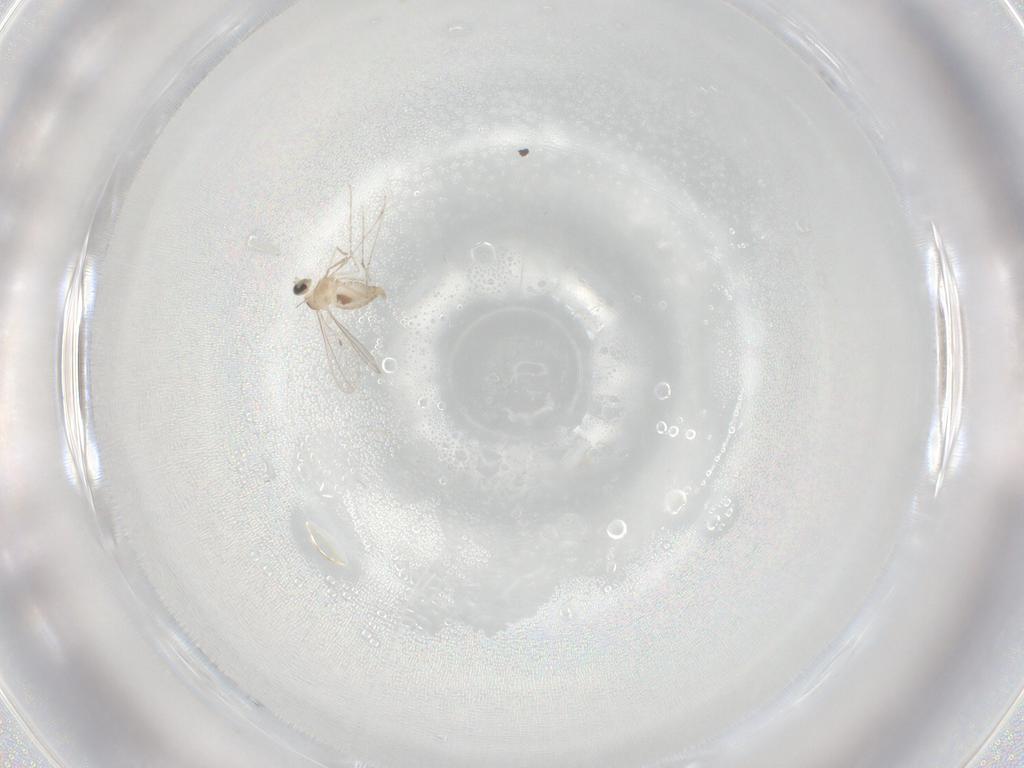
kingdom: Animalia
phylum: Arthropoda
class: Insecta
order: Diptera
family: Cecidomyiidae
